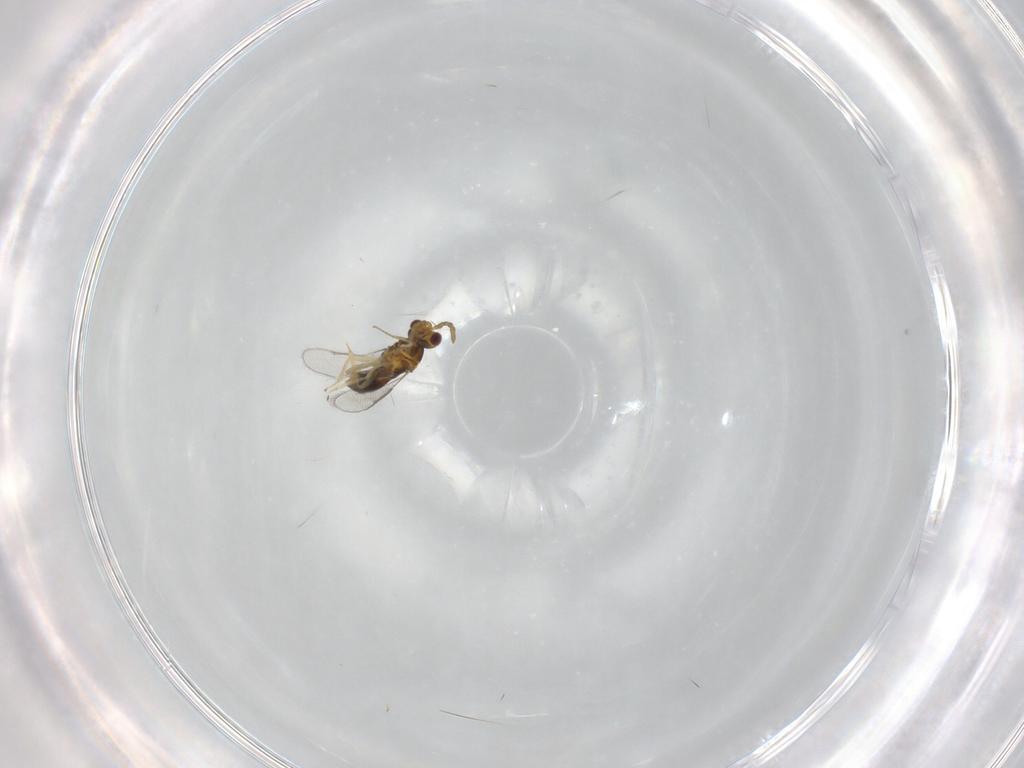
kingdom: Animalia
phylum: Arthropoda
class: Insecta
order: Hymenoptera
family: Aphelinidae
